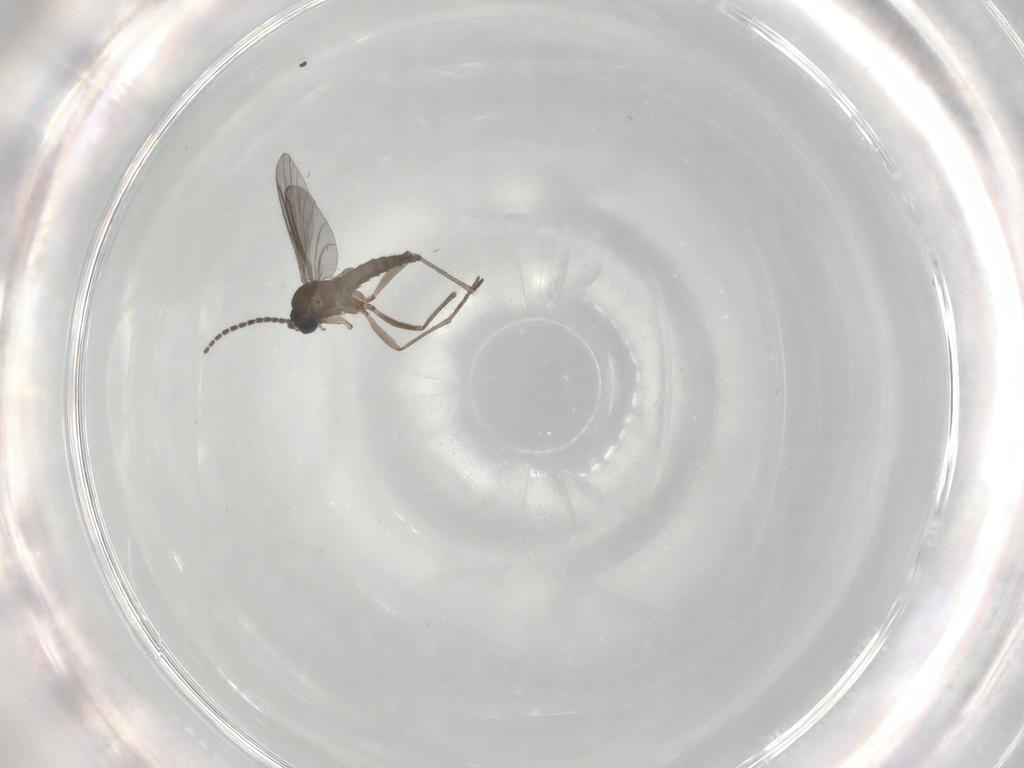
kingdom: Animalia
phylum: Arthropoda
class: Insecta
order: Diptera
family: Sciaridae
